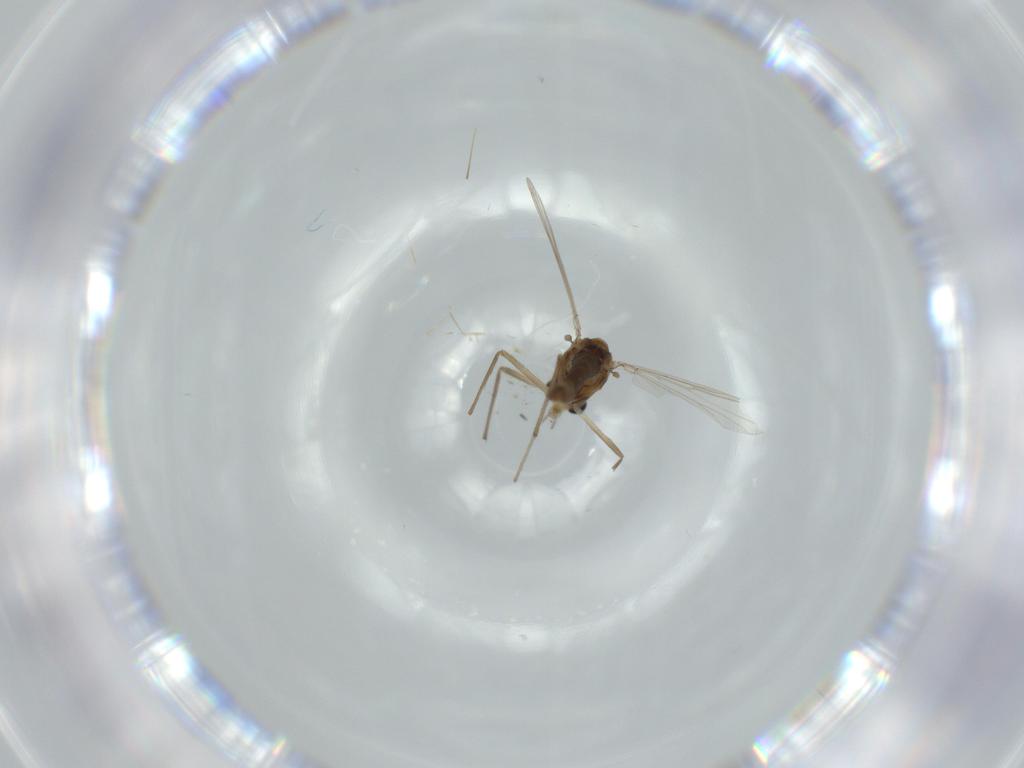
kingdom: Animalia
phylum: Arthropoda
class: Insecta
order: Diptera
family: Chironomidae
